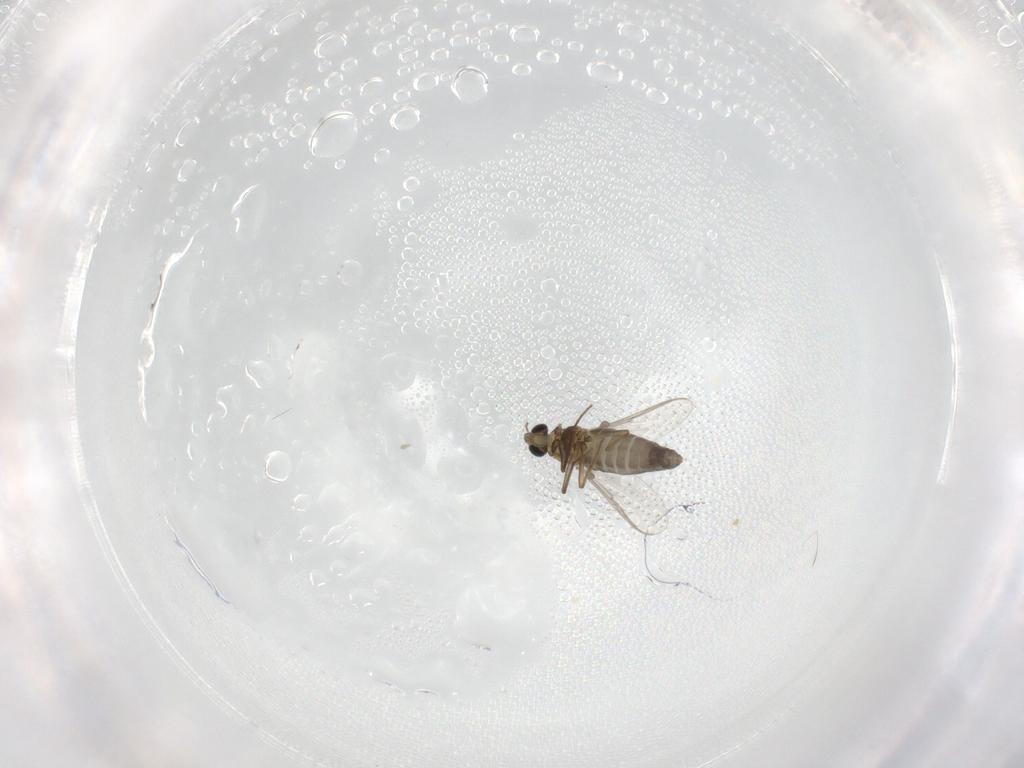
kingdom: Animalia
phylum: Arthropoda
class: Insecta
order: Diptera
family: Chironomidae
